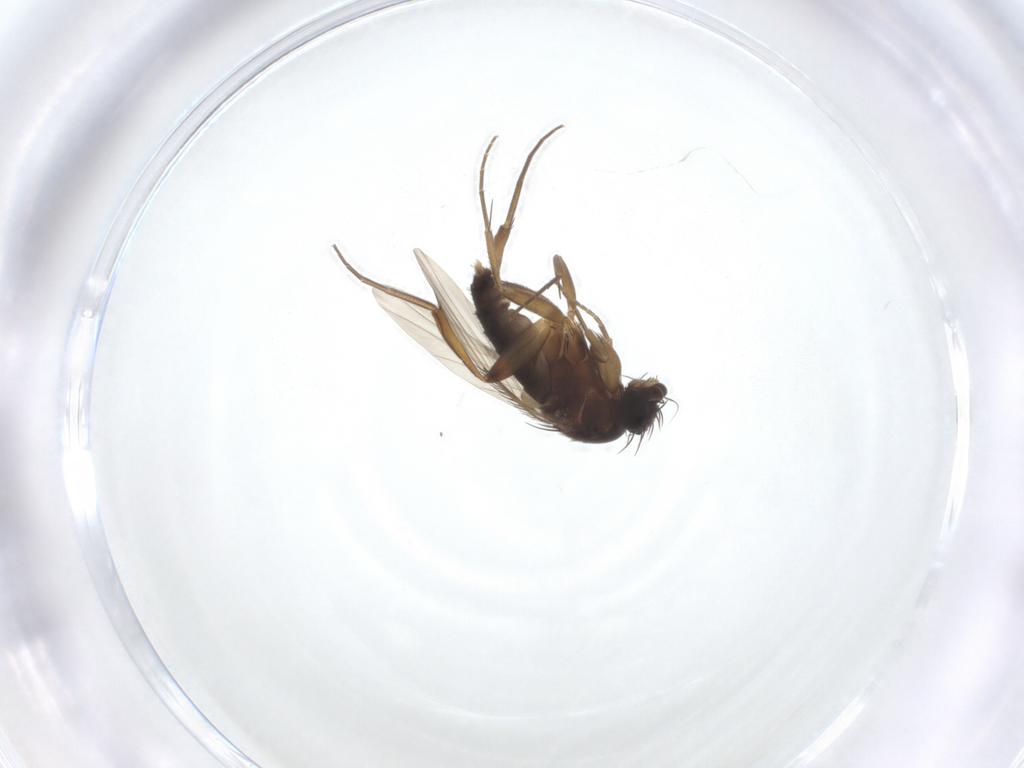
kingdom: Animalia
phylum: Arthropoda
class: Insecta
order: Diptera
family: Phoridae
